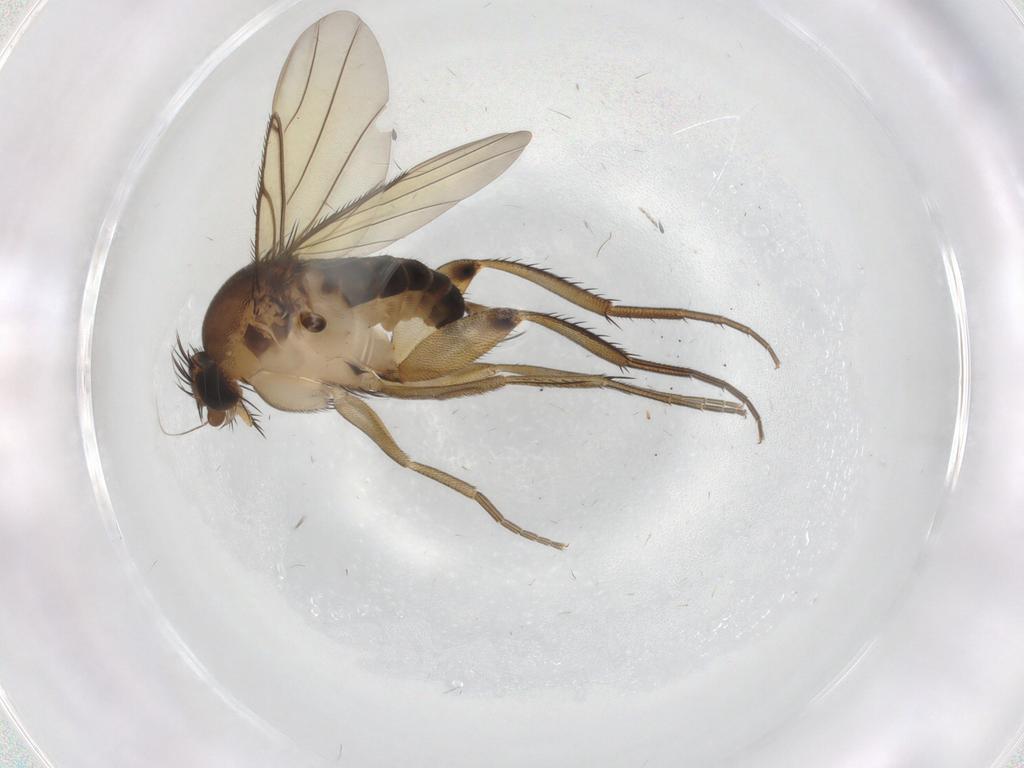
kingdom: Animalia
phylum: Arthropoda
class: Insecta
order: Diptera
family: Phoridae
